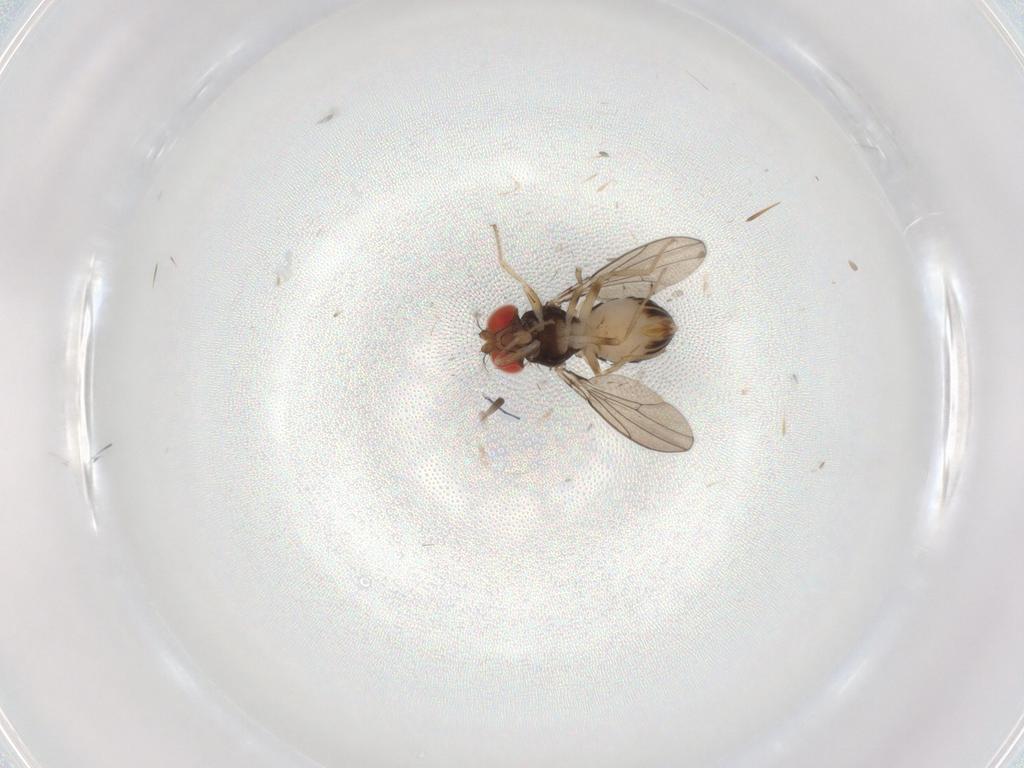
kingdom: Animalia
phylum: Arthropoda
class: Insecta
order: Diptera
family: Drosophilidae
